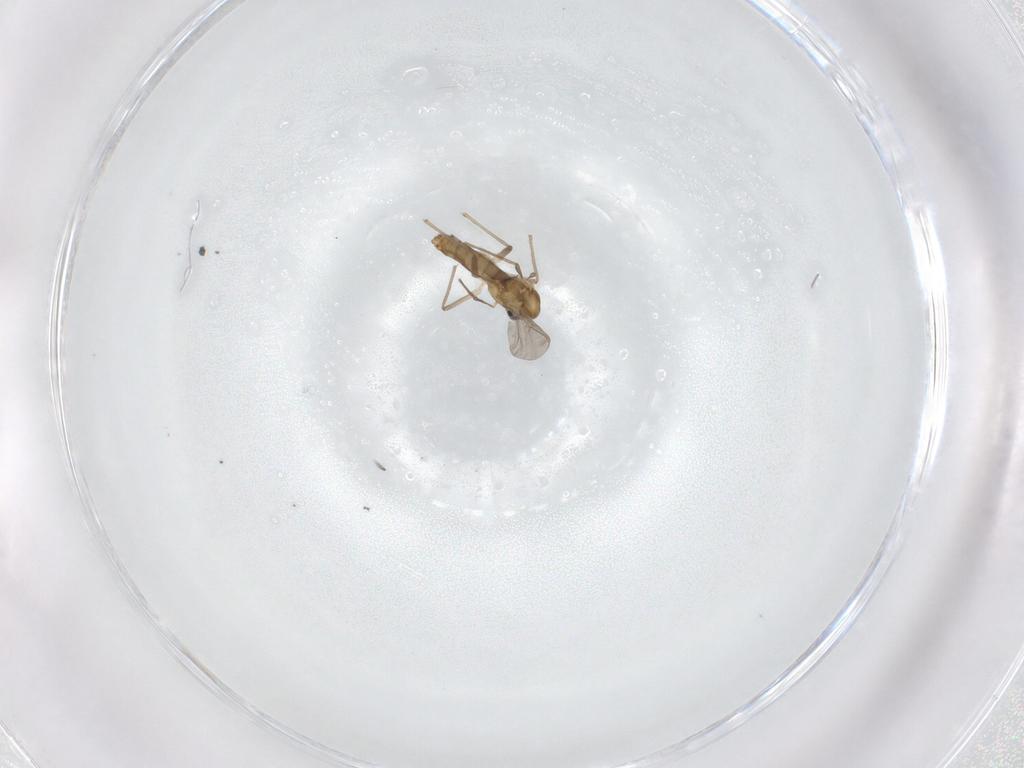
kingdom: Animalia
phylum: Arthropoda
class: Insecta
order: Diptera
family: Chironomidae
